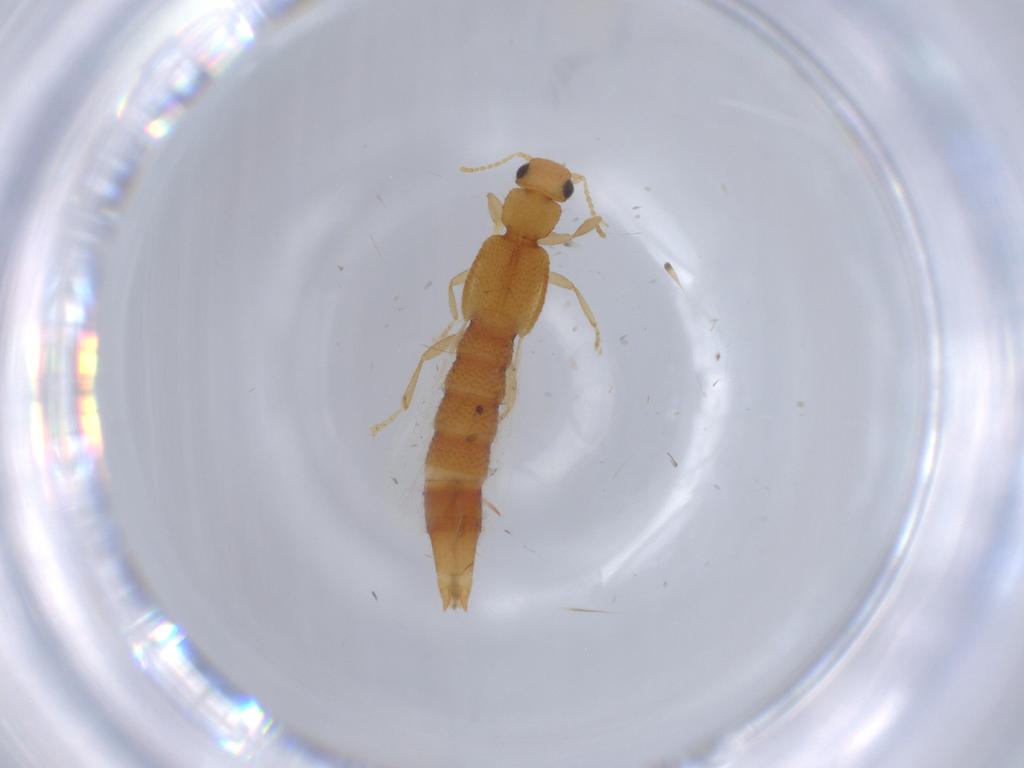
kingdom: Animalia
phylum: Arthropoda
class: Insecta
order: Coleoptera
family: Staphylinidae
